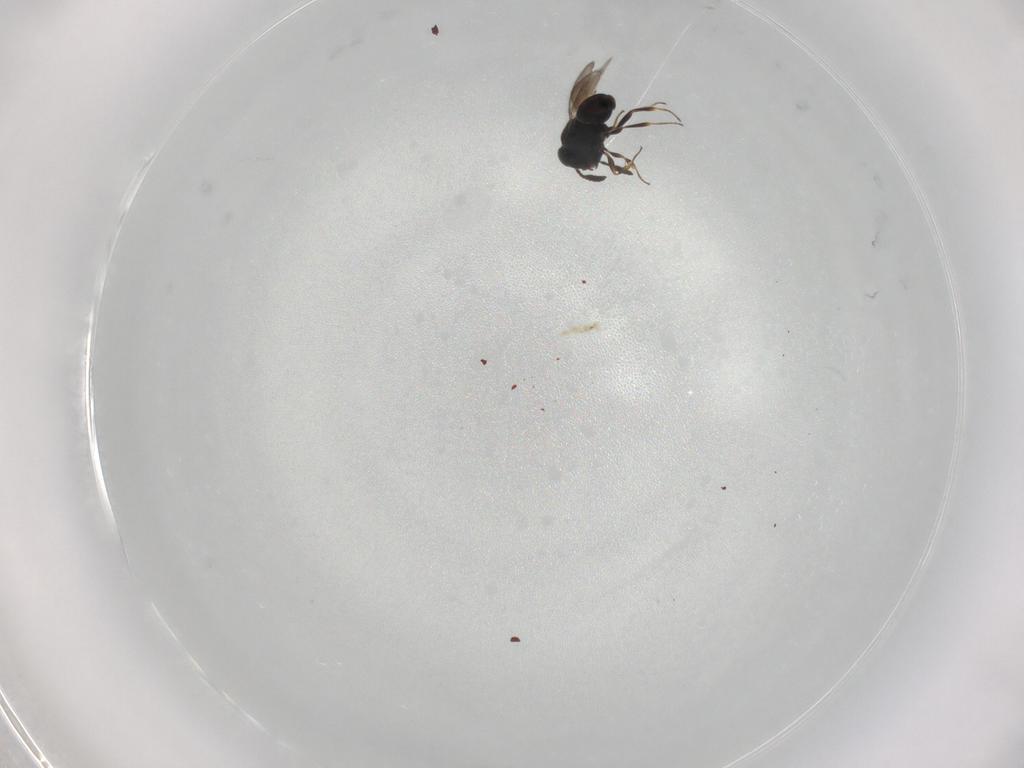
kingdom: Animalia
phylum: Arthropoda
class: Insecta
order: Hymenoptera
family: Scelionidae
